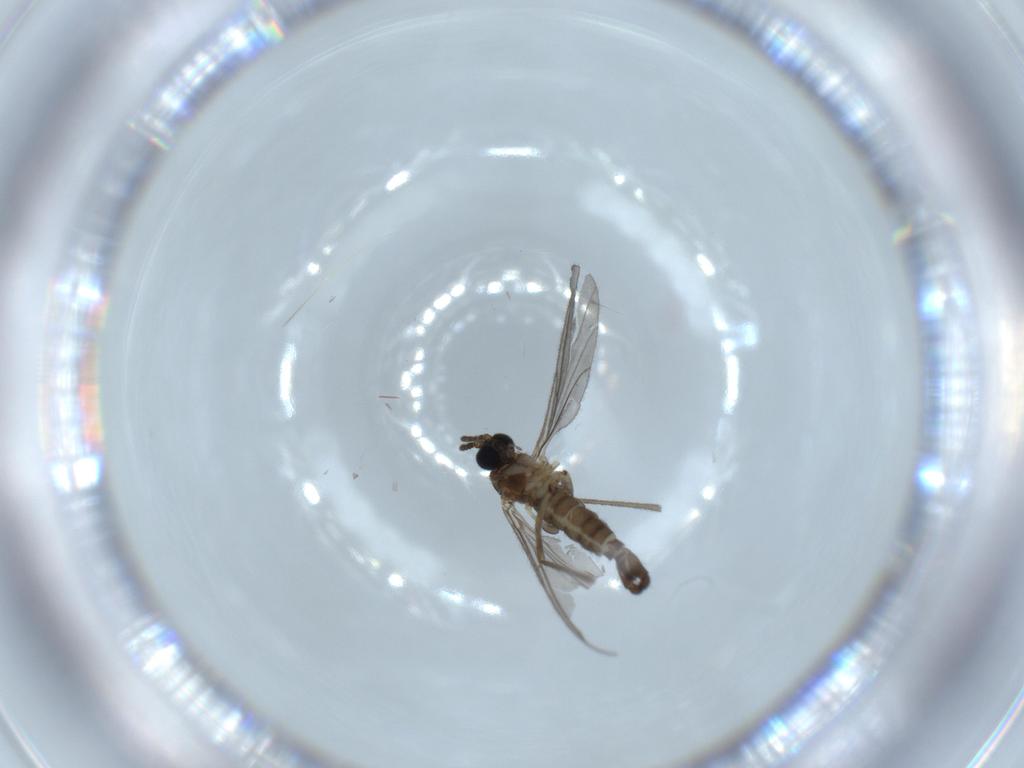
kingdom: Animalia
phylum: Arthropoda
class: Insecta
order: Diptera
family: Sciaridae
